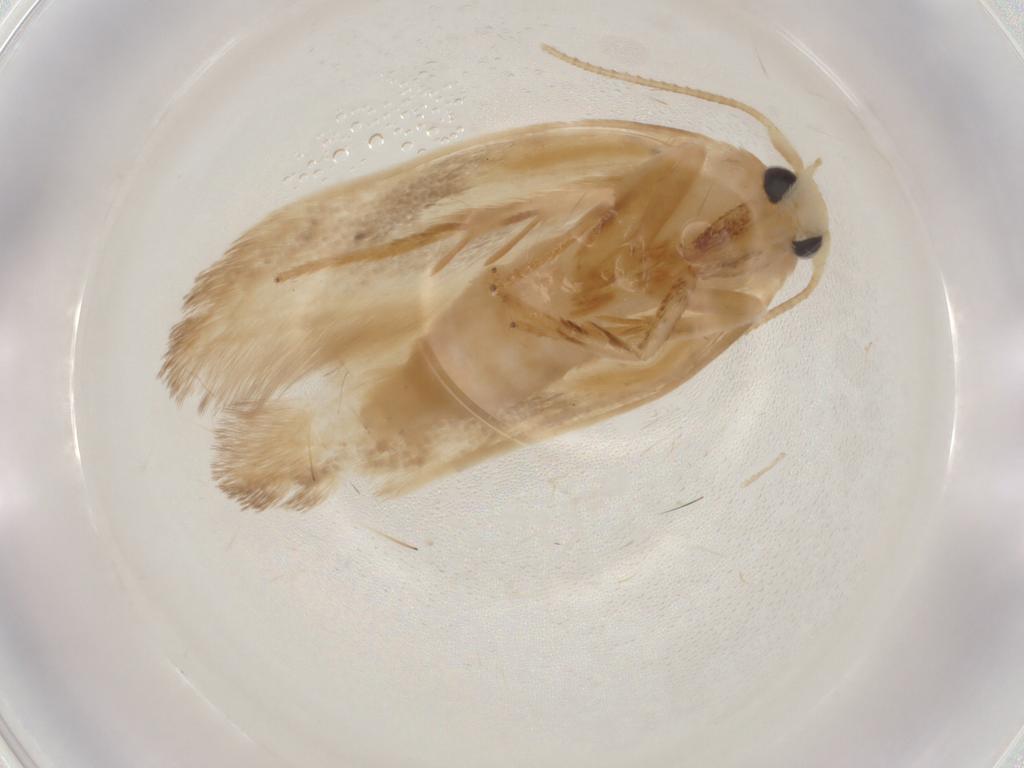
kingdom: Animalia
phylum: Arthropoda
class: Insecta
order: Lepidoptera
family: Geometridae
